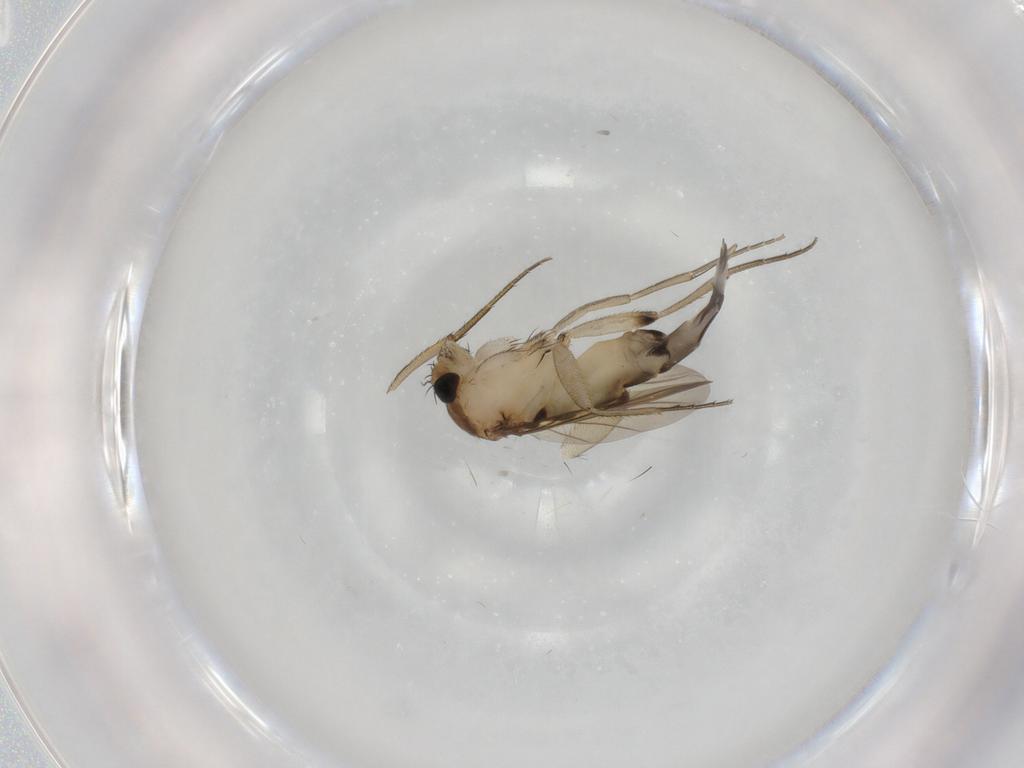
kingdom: Animalia
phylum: Arthropoda
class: Insecta
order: Diptera
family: Phoridae
